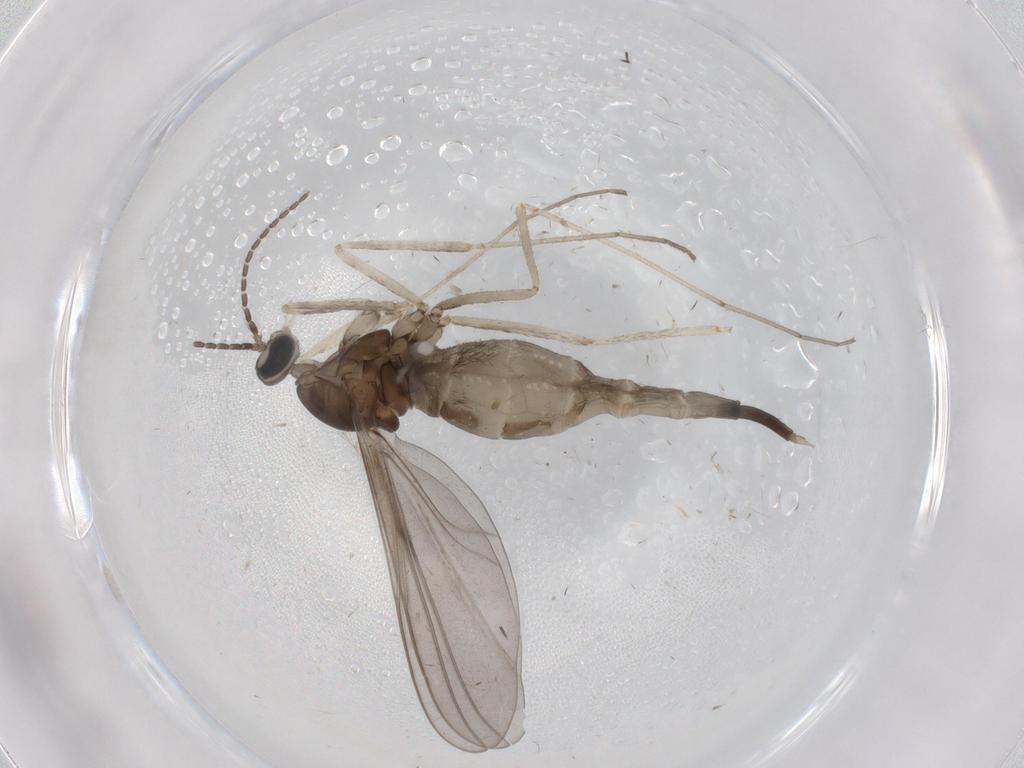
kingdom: Animalia
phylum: Arthropoda
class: Insecta
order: Diptera
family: Cecidomyiidae
